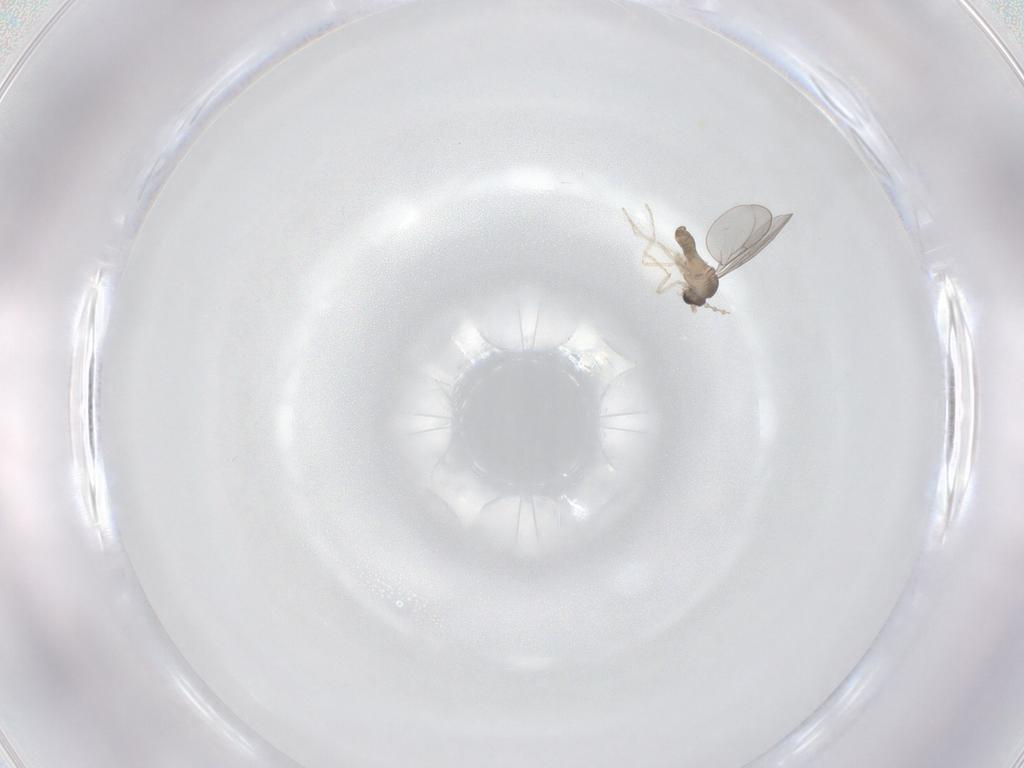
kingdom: Animalia
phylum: Arthropoda
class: Insecta
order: Diptera
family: Cecidomyiidae
